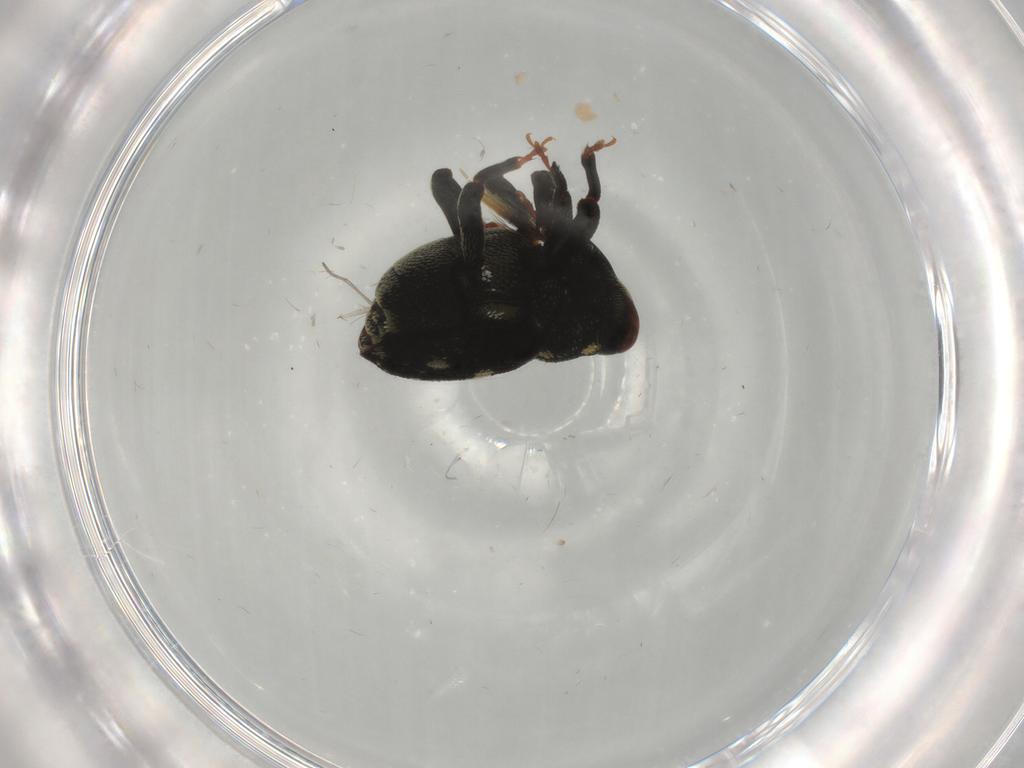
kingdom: Animalia
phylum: Arthropoda
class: Insecta
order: Coleoptera
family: Curculionidae
